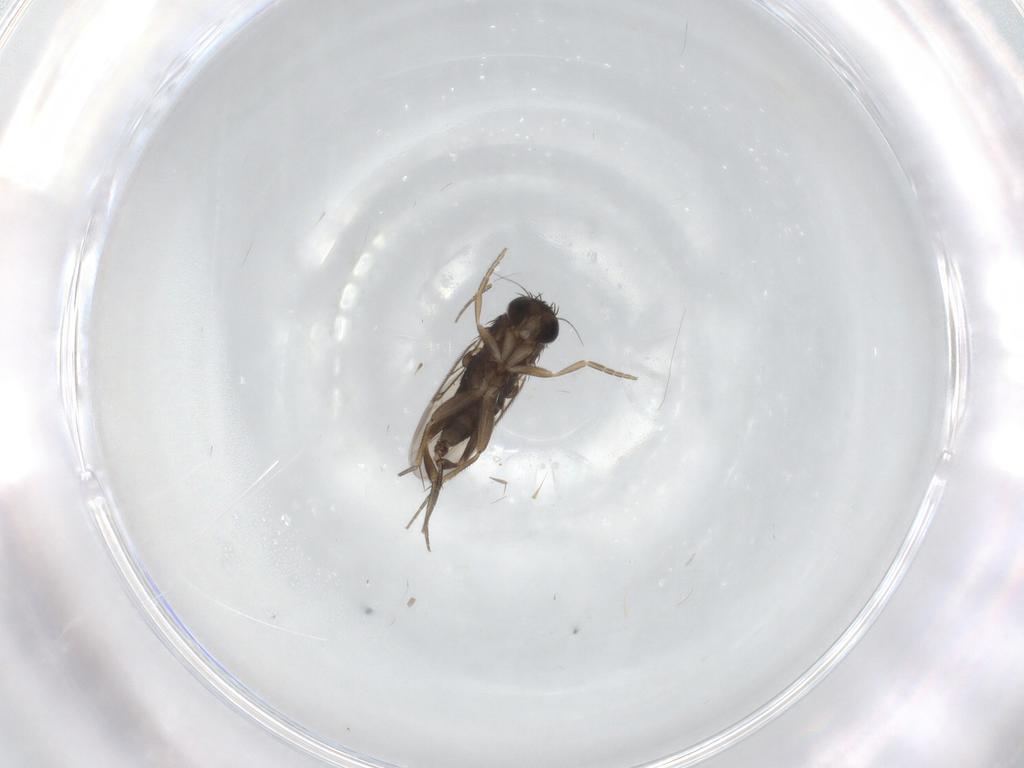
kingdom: Animalia
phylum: Arthropoda
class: Insecta
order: Diptera
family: Phoridae
